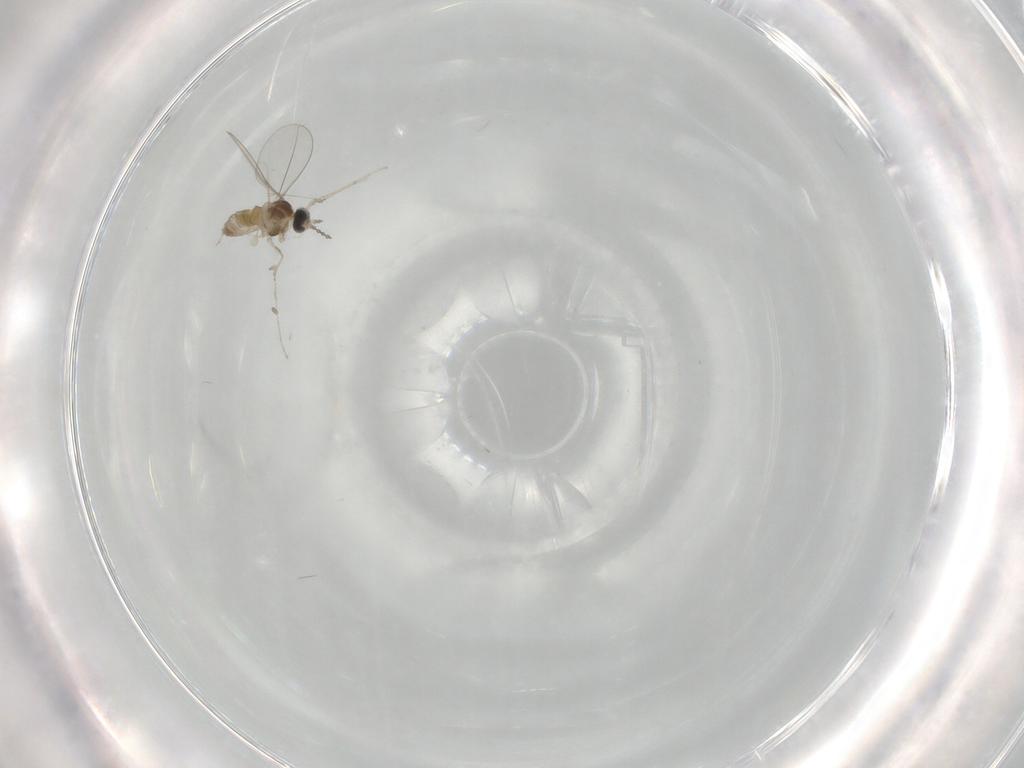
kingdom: Animalia
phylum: Arthropoda
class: Insecta
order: Diptera
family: Cecidomyiidae
